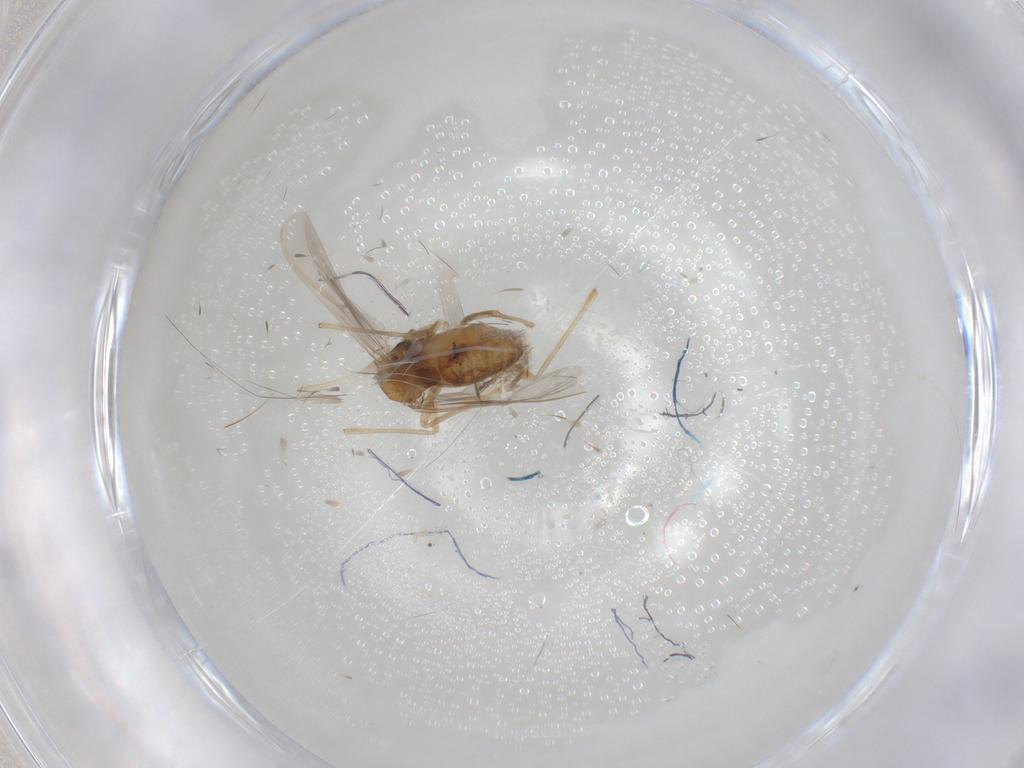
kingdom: Animalia
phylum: Arthropoda
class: Insecta
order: Diptera
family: Chironomidae
